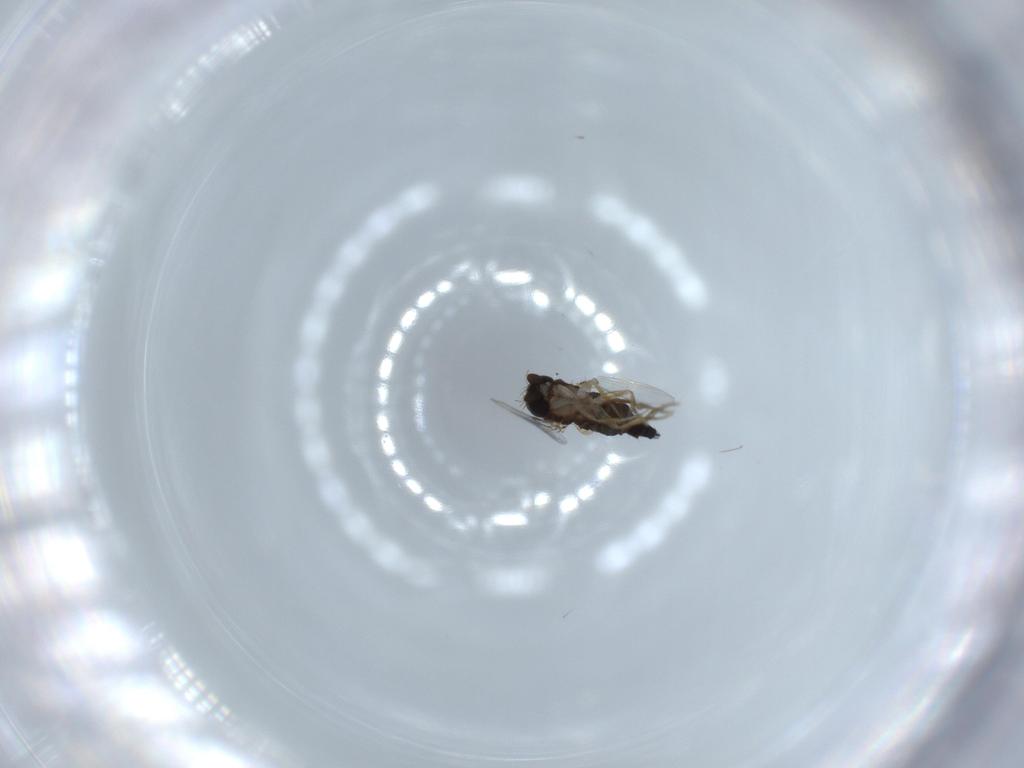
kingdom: Animalia
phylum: Arthropoda
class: Insecta
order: Diptera
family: Phoridae
